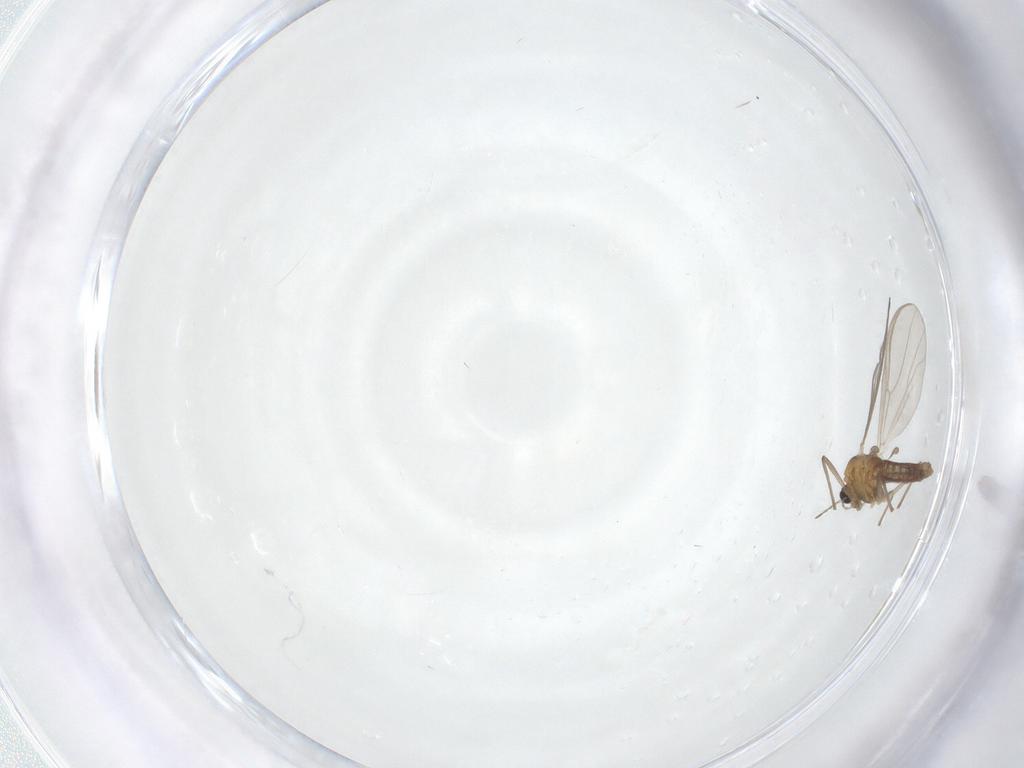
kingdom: Animalia
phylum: Arthropoda
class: Insecta
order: Diptera
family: Chironomidae
